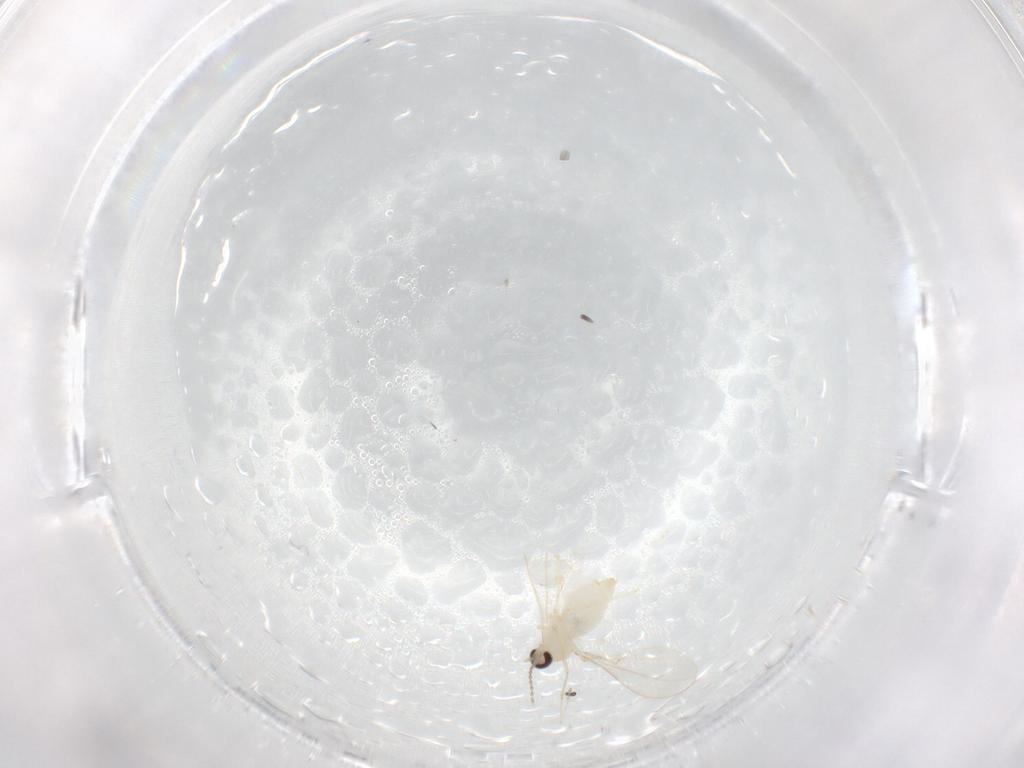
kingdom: Animalia
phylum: Arthropoda
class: Insecta
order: Diptera
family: Cecidomyiidae
